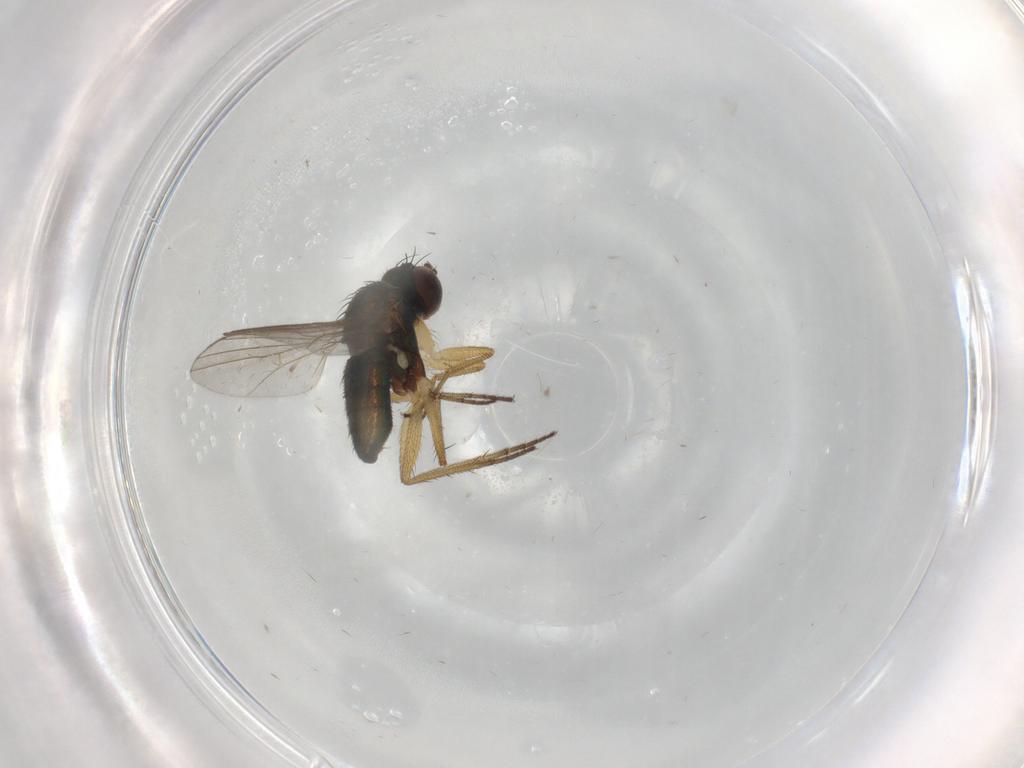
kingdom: Animalia
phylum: Arthropoda
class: Insecta
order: Diptera
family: Dolichopodidae
